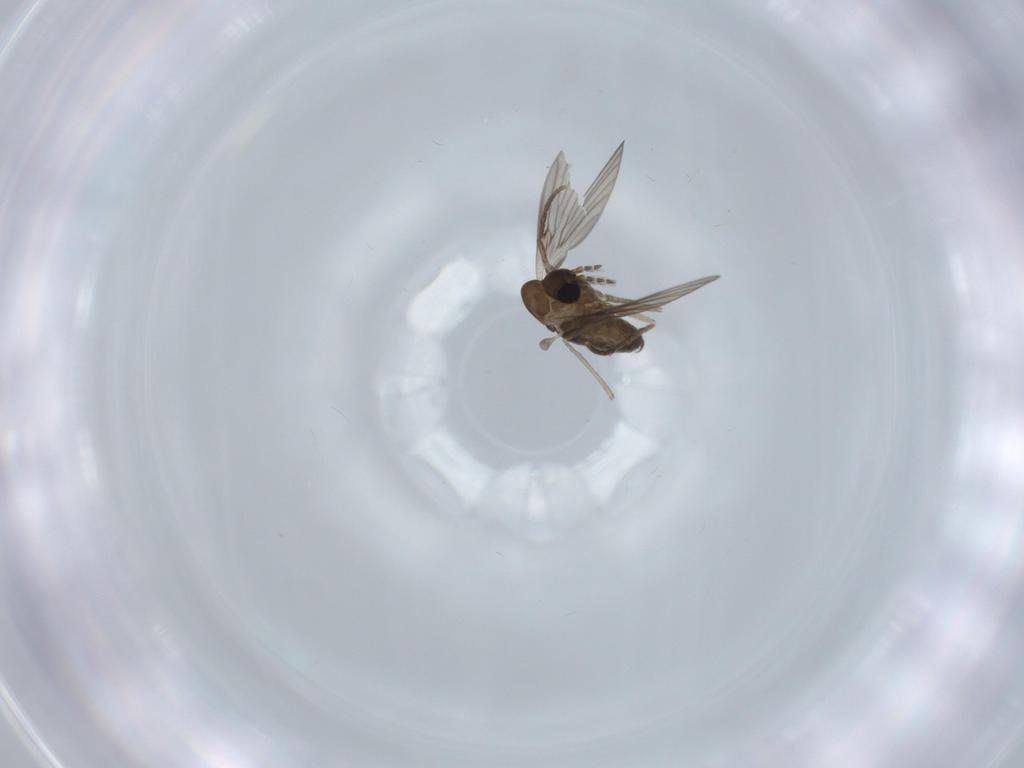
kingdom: Animalia
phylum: Arthropoda
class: Insecta
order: Diptera
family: Psychodidae
